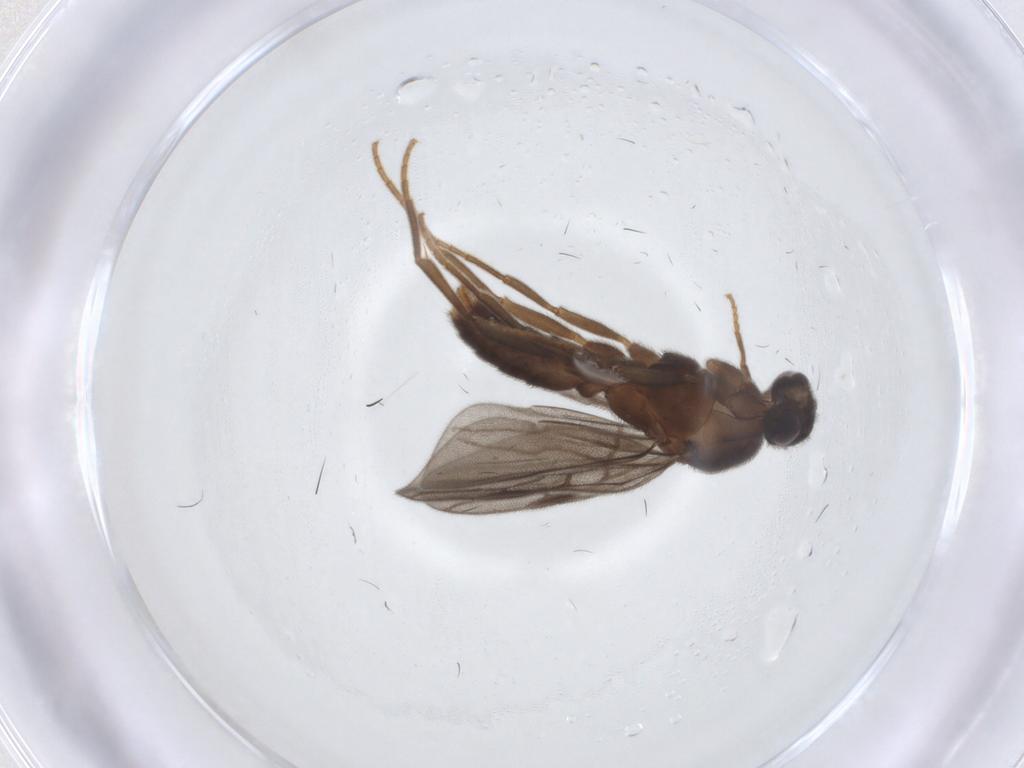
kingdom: Animalia
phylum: Arthropoda
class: Insecta
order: Hymenoptera
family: Formicidae
